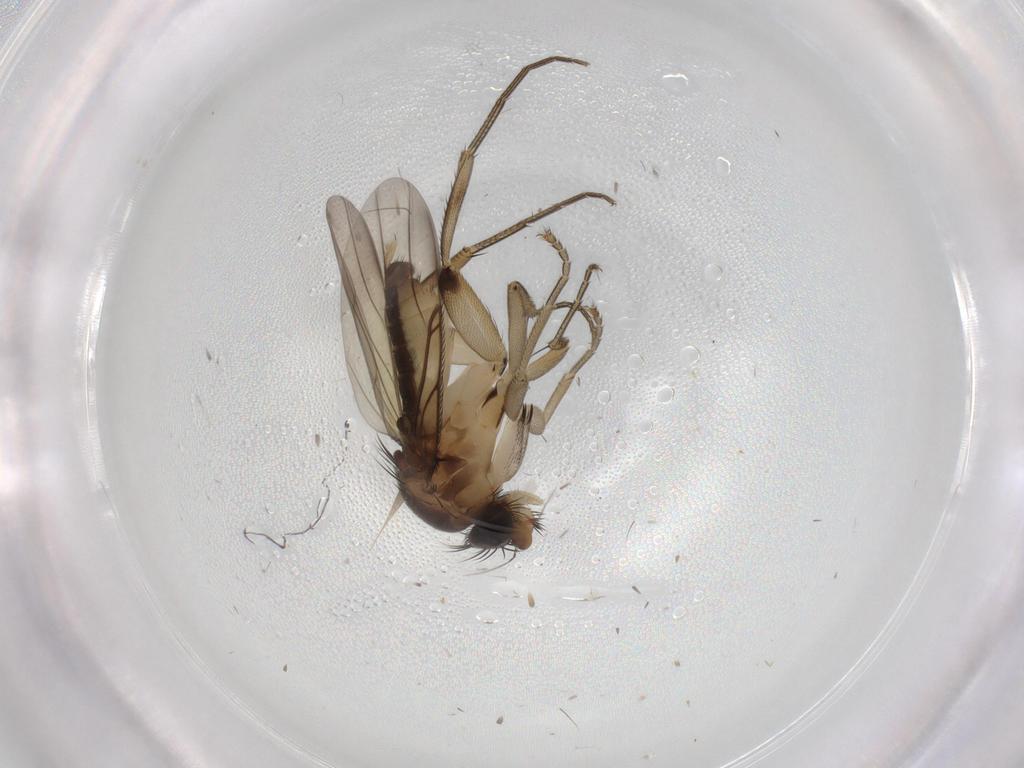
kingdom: Animalia
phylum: Arthropoda
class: Insecta
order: Diptera
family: Phoridae
